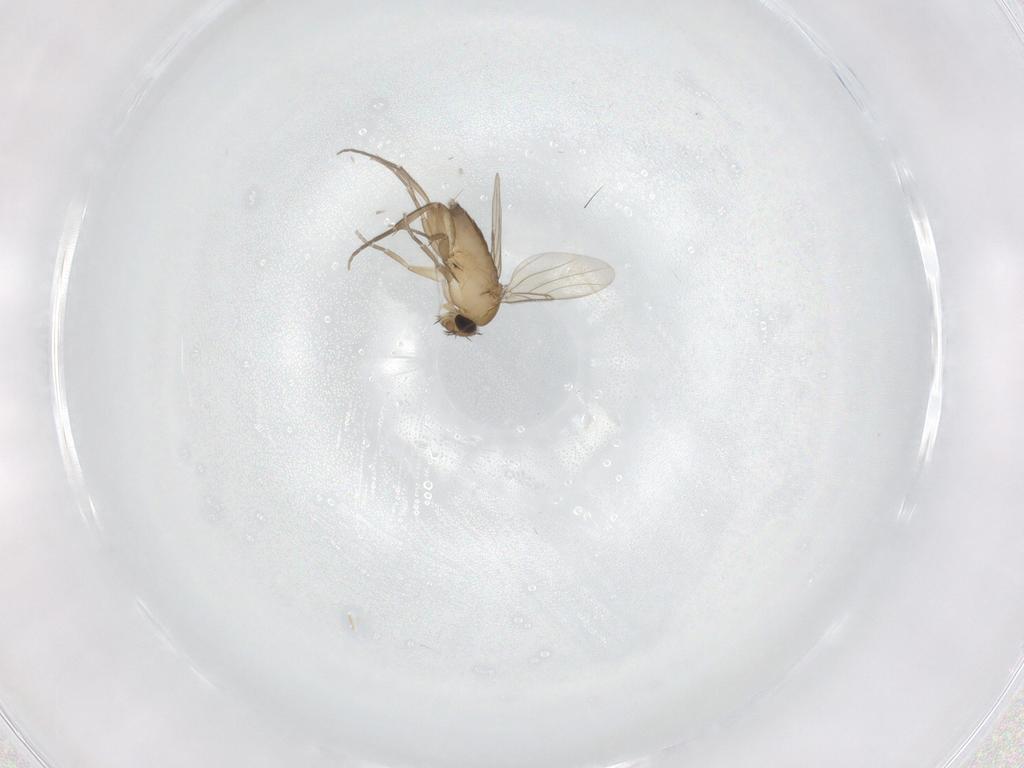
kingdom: Animalia
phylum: Arthropoda
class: Insecta
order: Diptera
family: Phoridae
